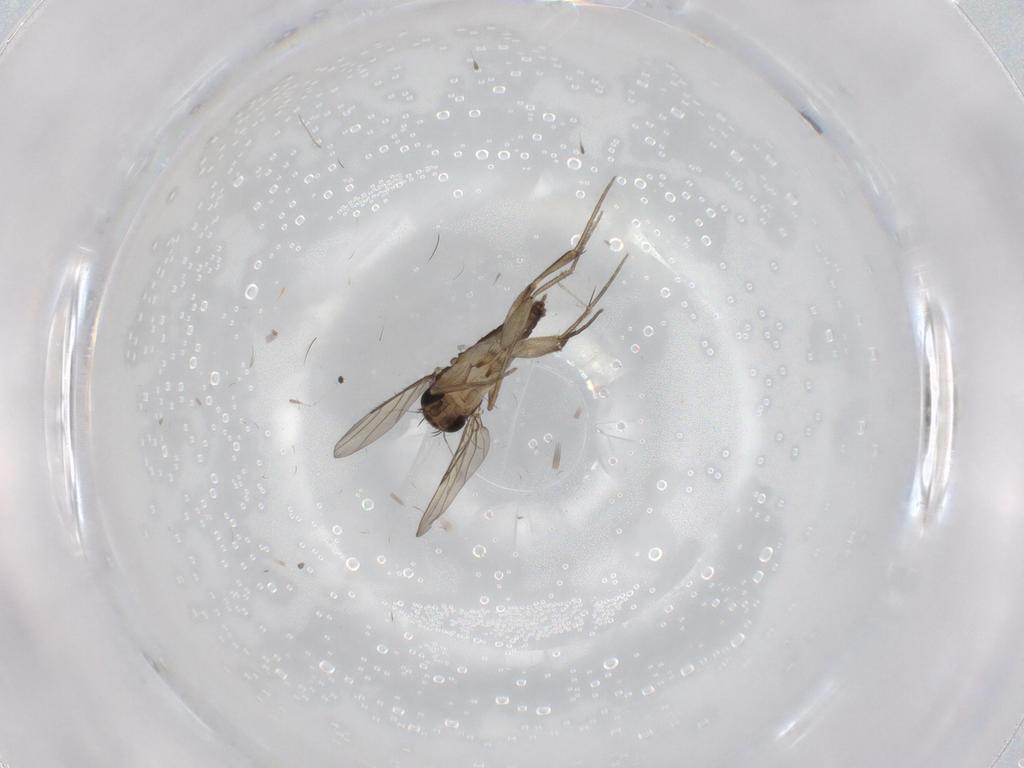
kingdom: Animalia
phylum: Arthropoda
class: Insecta
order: Diptera
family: Phoridae
